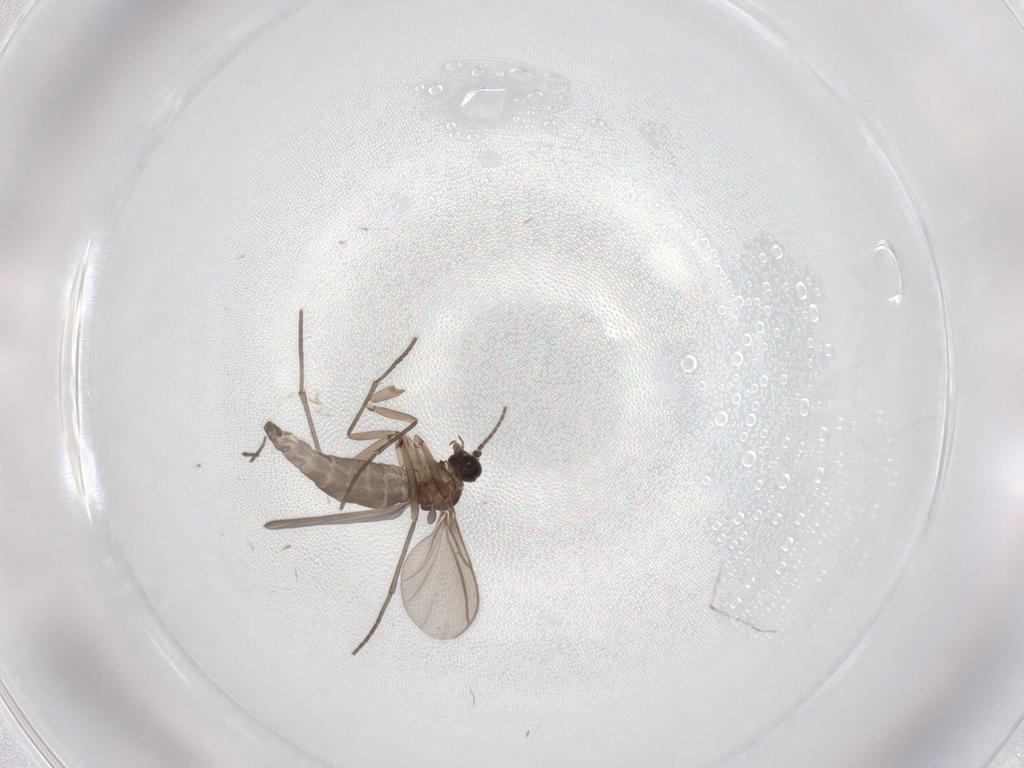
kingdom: Animalia
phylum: Arthropoda
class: Insecta
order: Diptera
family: Sciaridae
